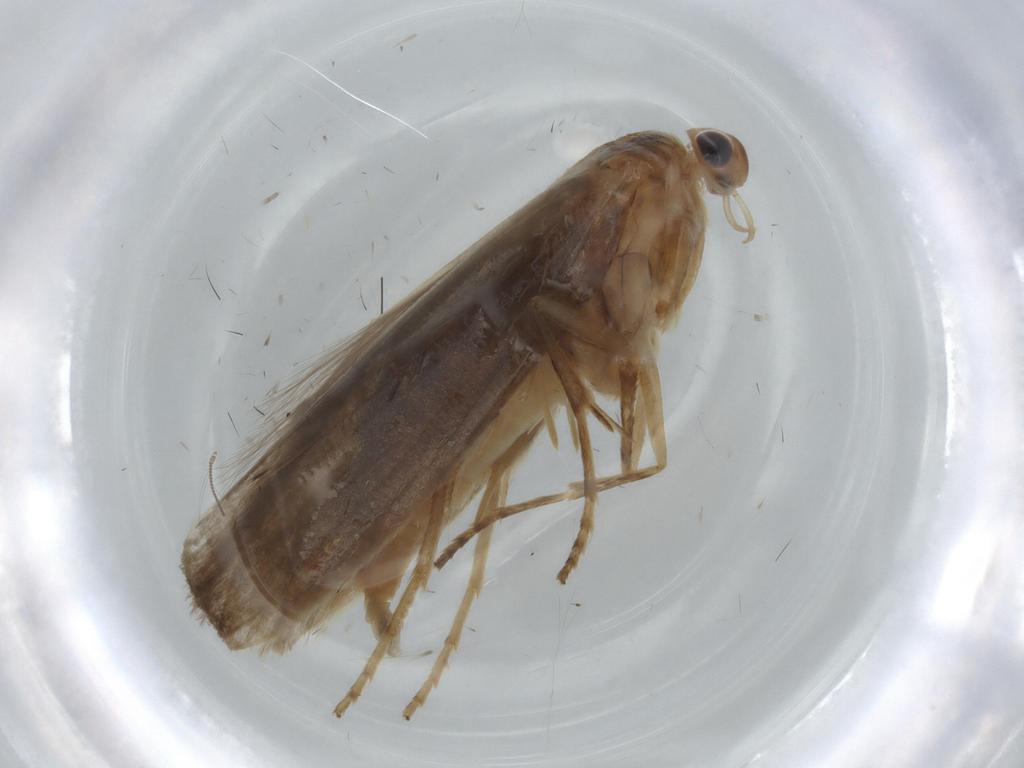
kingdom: Animalia
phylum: Arthropoda
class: Insecta
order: Lepidoptera
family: Argyresthiidae
